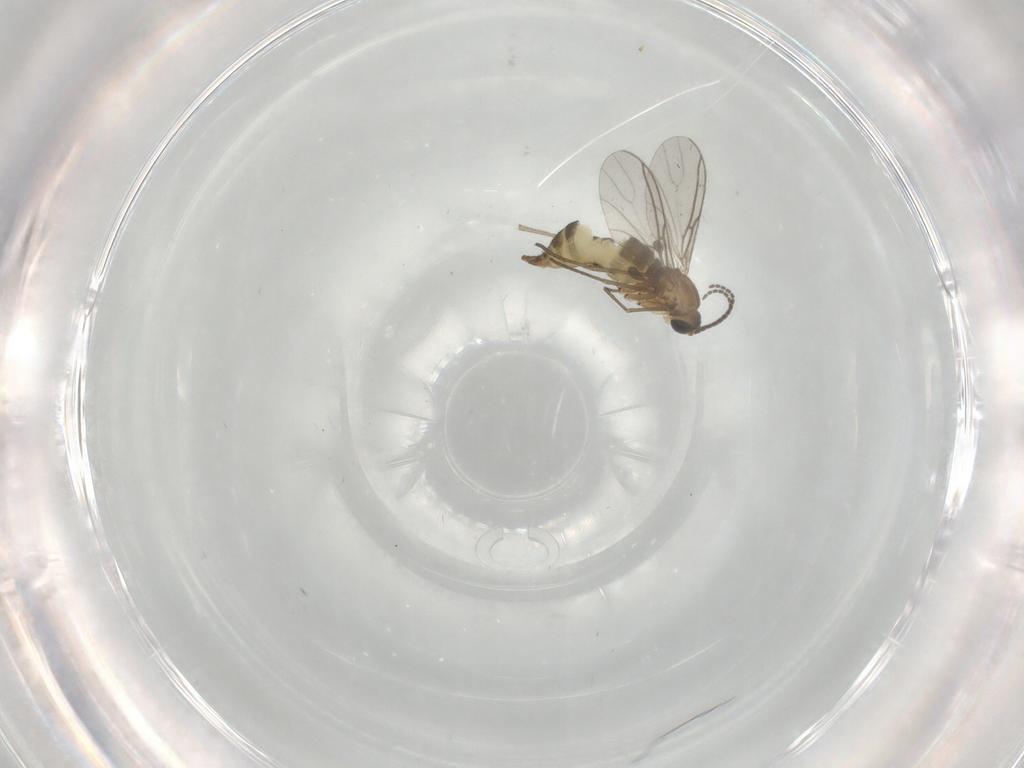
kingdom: Animalia
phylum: Arthropoda
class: Insecta
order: Diptera
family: Sciaridae
